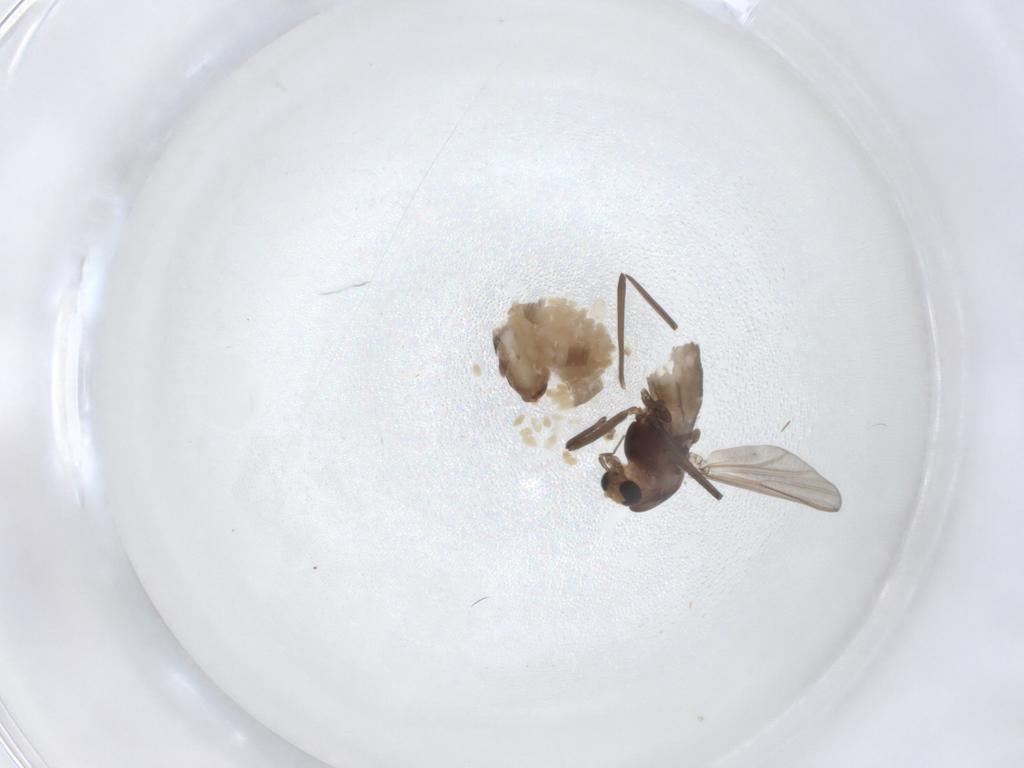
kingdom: Animalia
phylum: Arthropoda
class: Insecta
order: Diptera
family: Chironomidae
